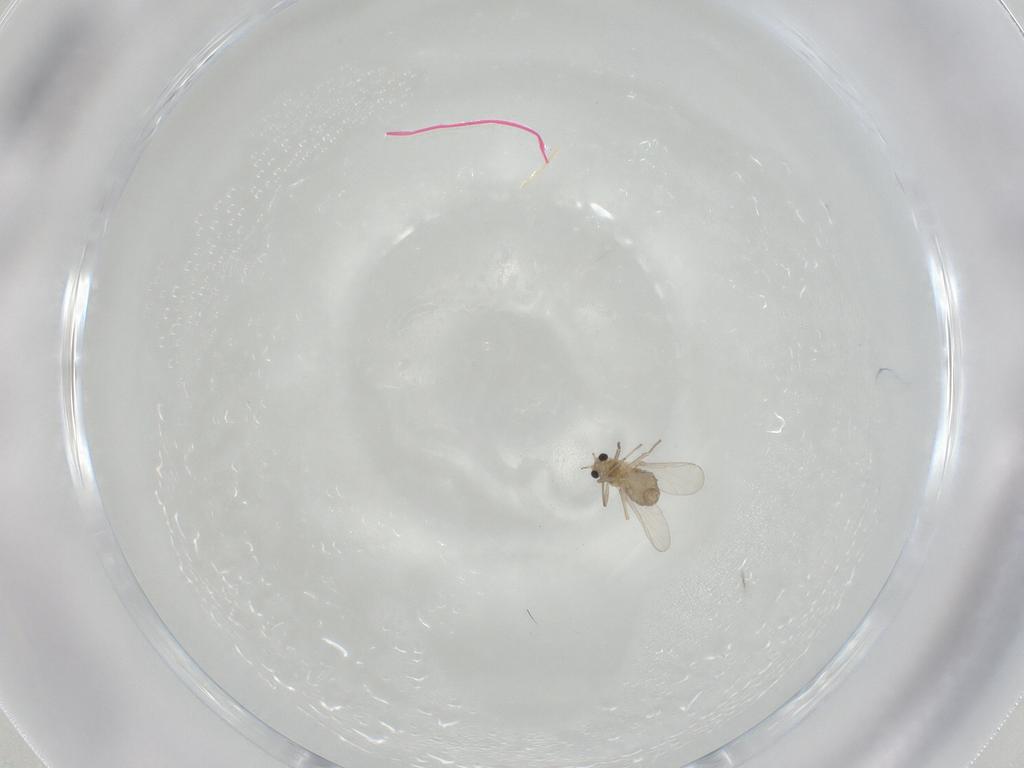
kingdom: Animalia
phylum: Arthropoda
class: Insecta
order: Diptera
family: Chironomidae
